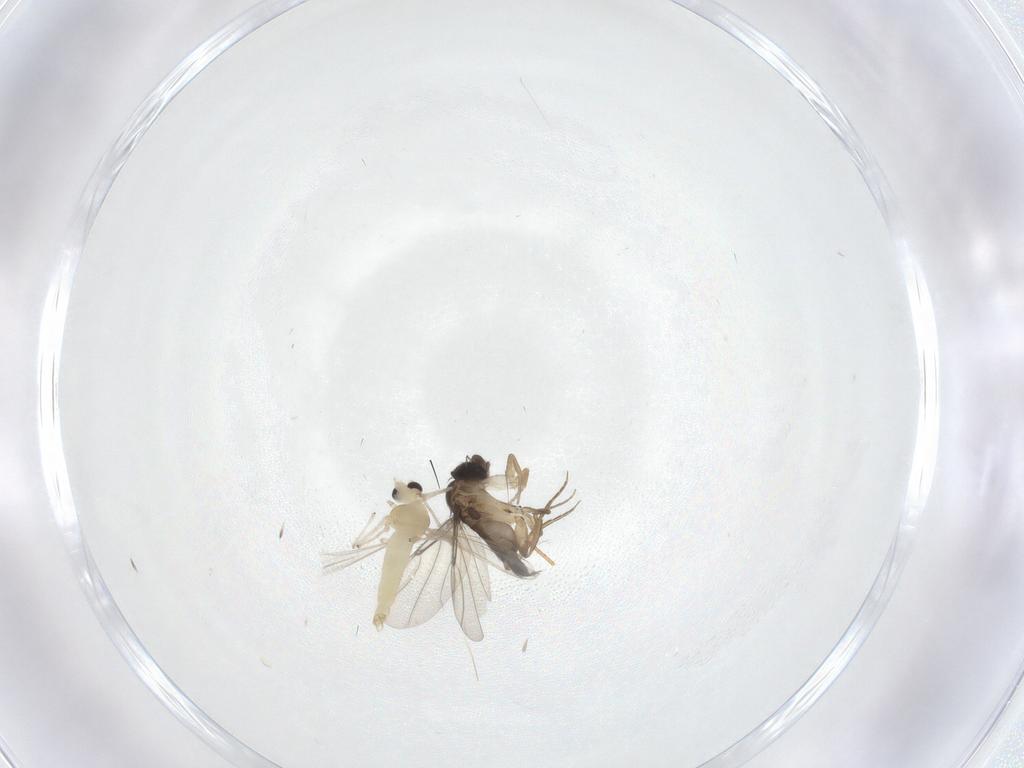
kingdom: Animalia
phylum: Arthropoda
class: Insecta
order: Diptera
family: Chironomidae
